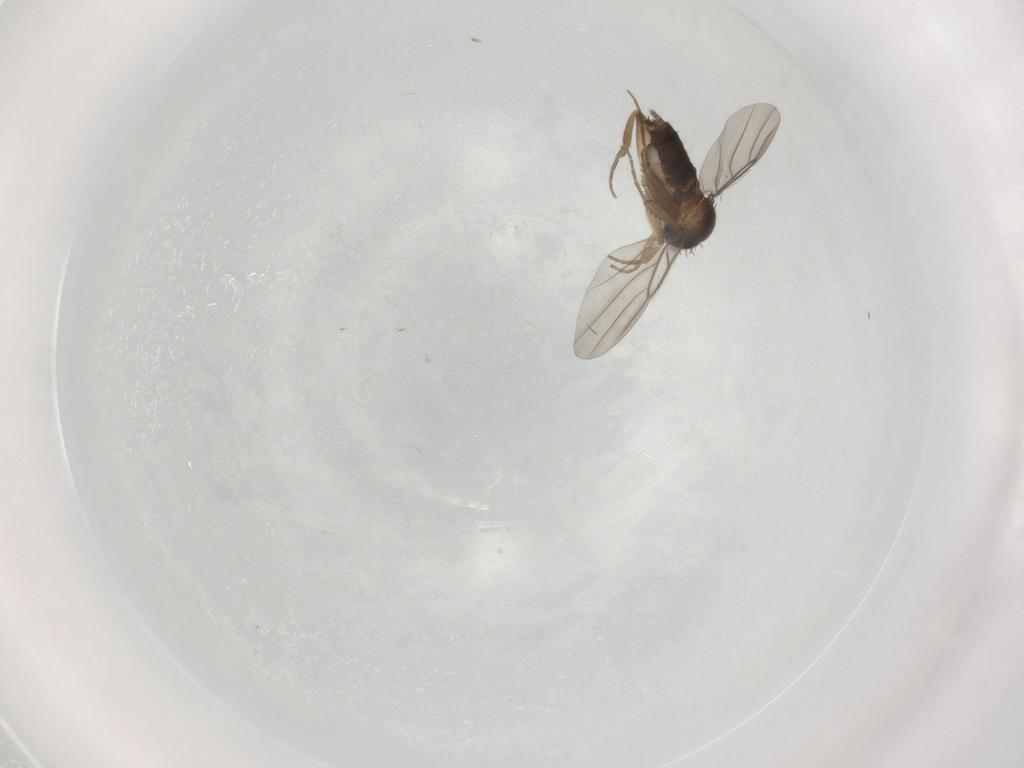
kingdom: Animalia
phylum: Arthropoda
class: Insecta
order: Diptera
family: Cecidomyiidae
